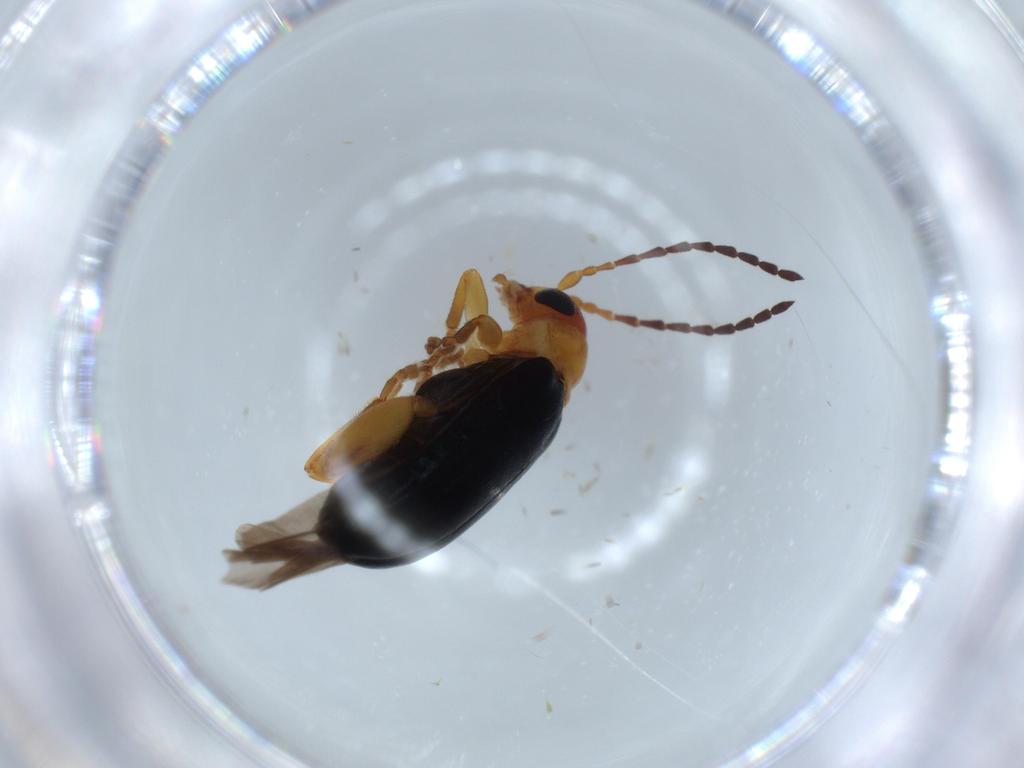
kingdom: Animalia
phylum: Arthropoda
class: Insecta
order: Coleoptera
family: Chrysomelidae
